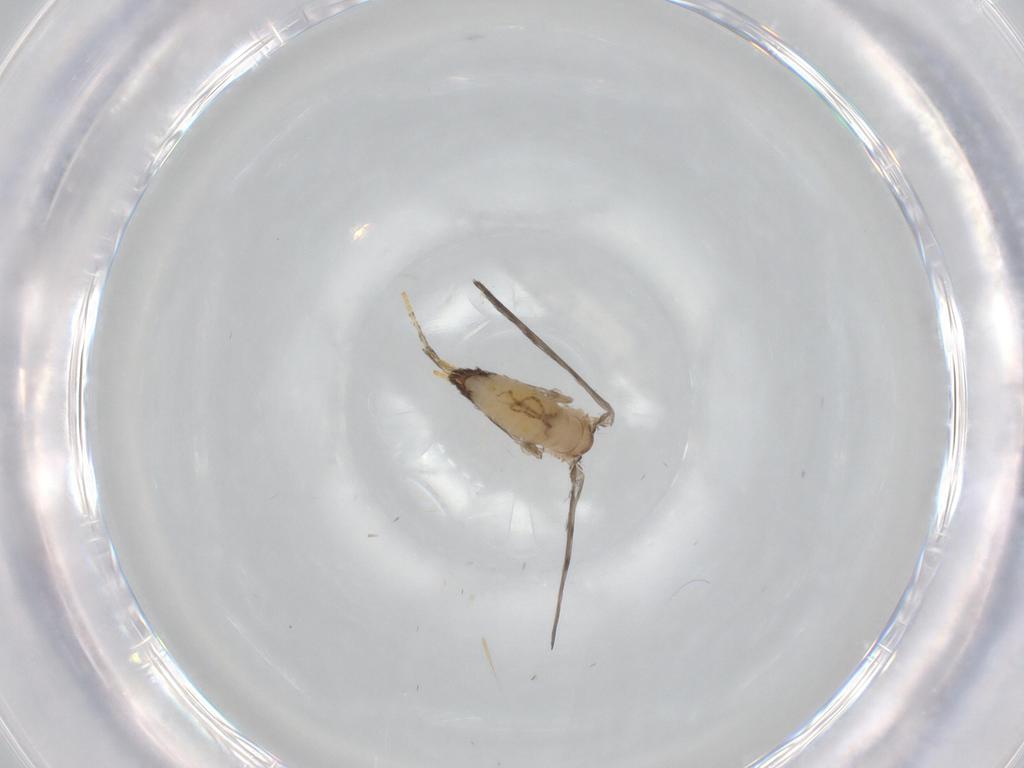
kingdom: Animalia
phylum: Arthropoda
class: Insecta
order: Diptera
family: Psychodidae
